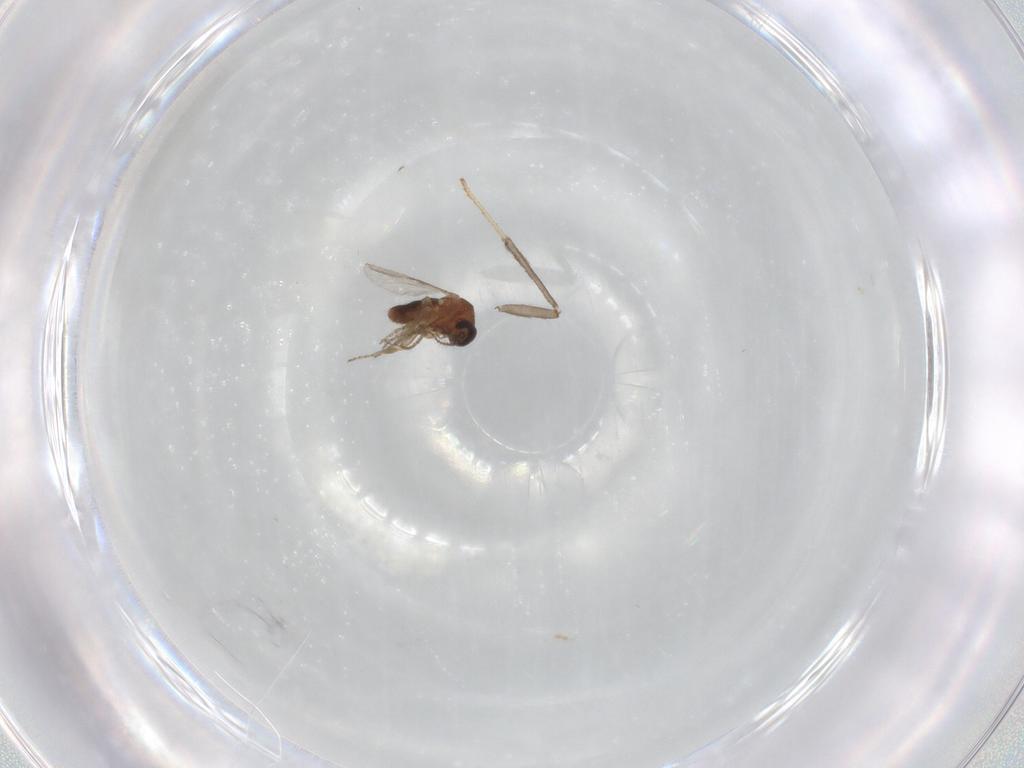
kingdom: Animalia
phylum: Arthropoda
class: Insecta
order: Diptera
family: Ceratopogonidae
